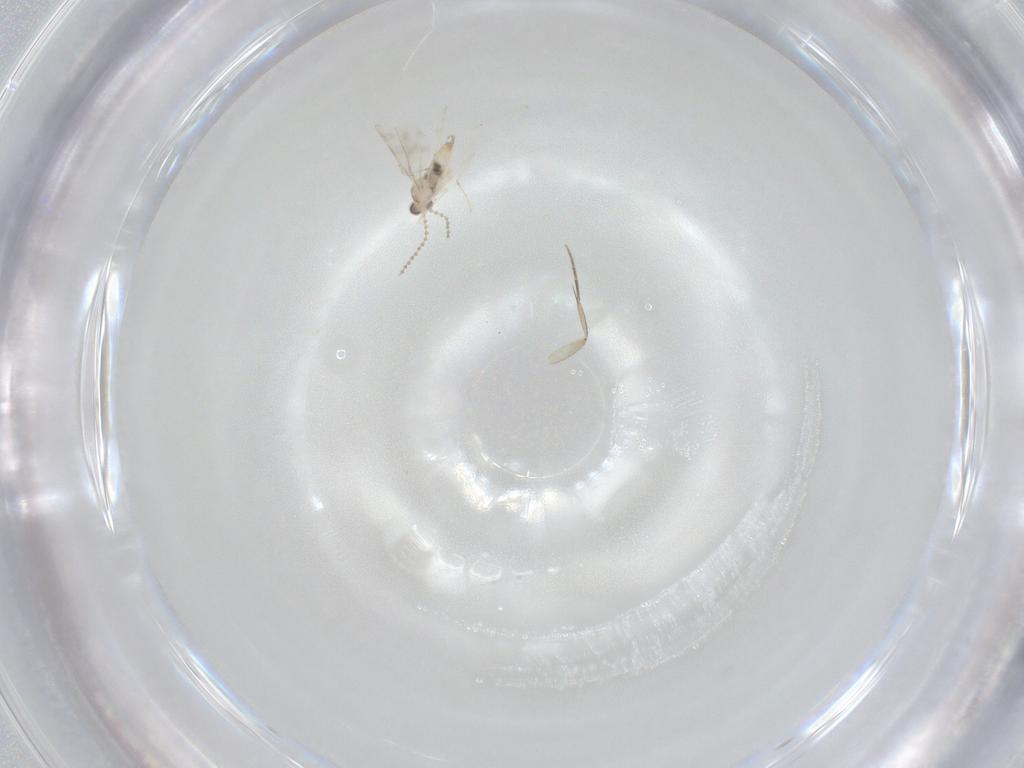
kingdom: Animalia
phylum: Arthropoda
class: Insecta
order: Diptera
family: Cecidomyiidae
